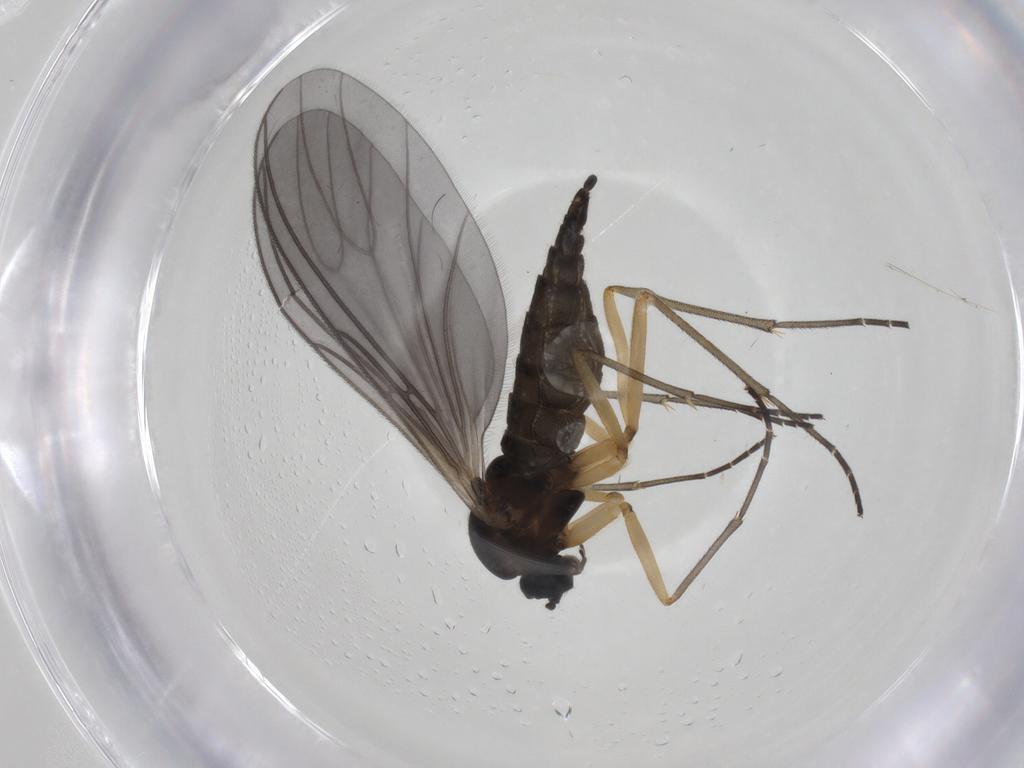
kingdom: Animalia
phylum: Arthropoda
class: Insecta
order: Diptera
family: Sciaridae
